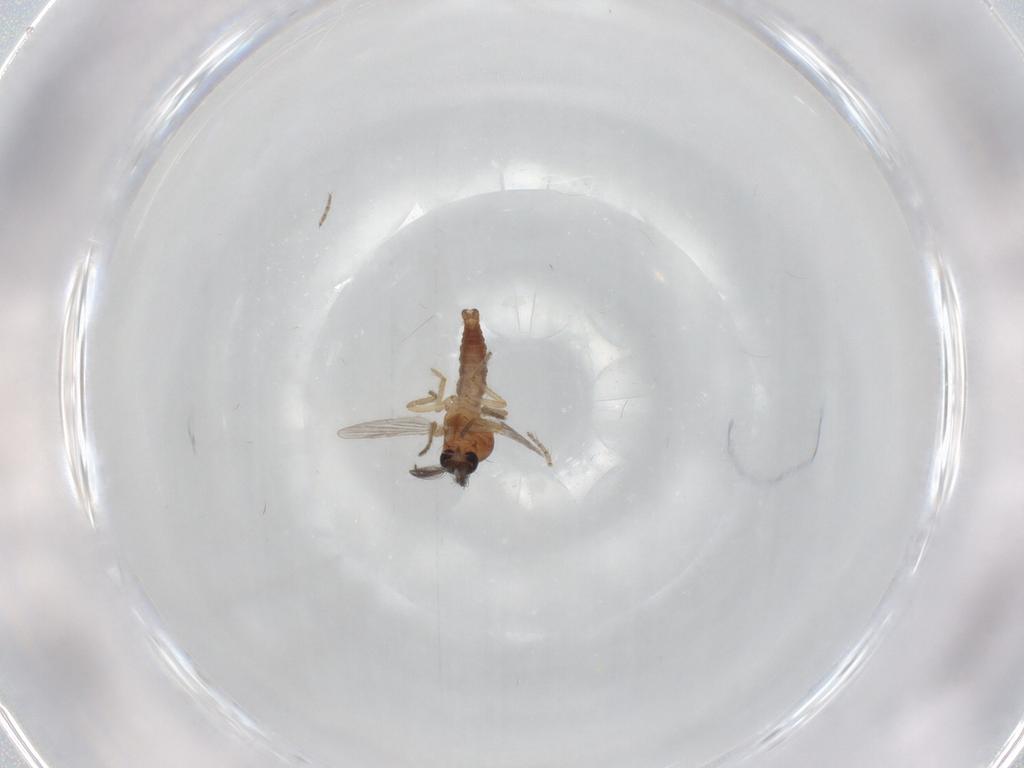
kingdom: Animalia
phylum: Arthropoda
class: Insecta
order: Diptera
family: Ceratopogonidae
